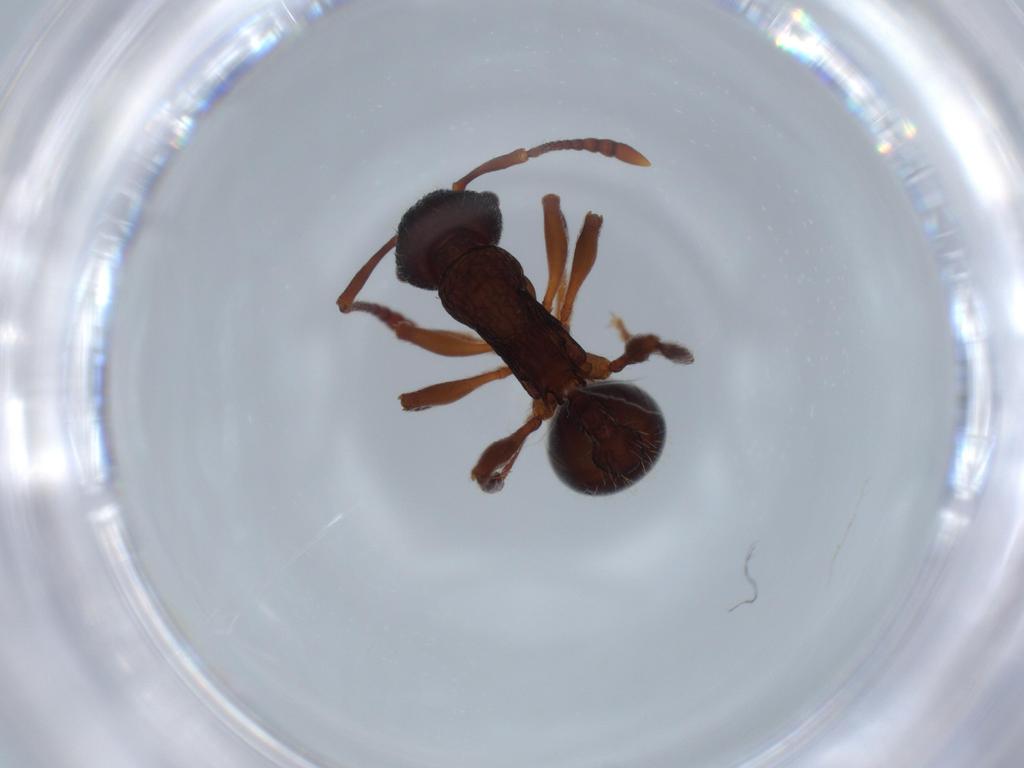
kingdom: Animalia
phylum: Arthropoda
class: Insecta
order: Hymenoptera
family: Formicidae
